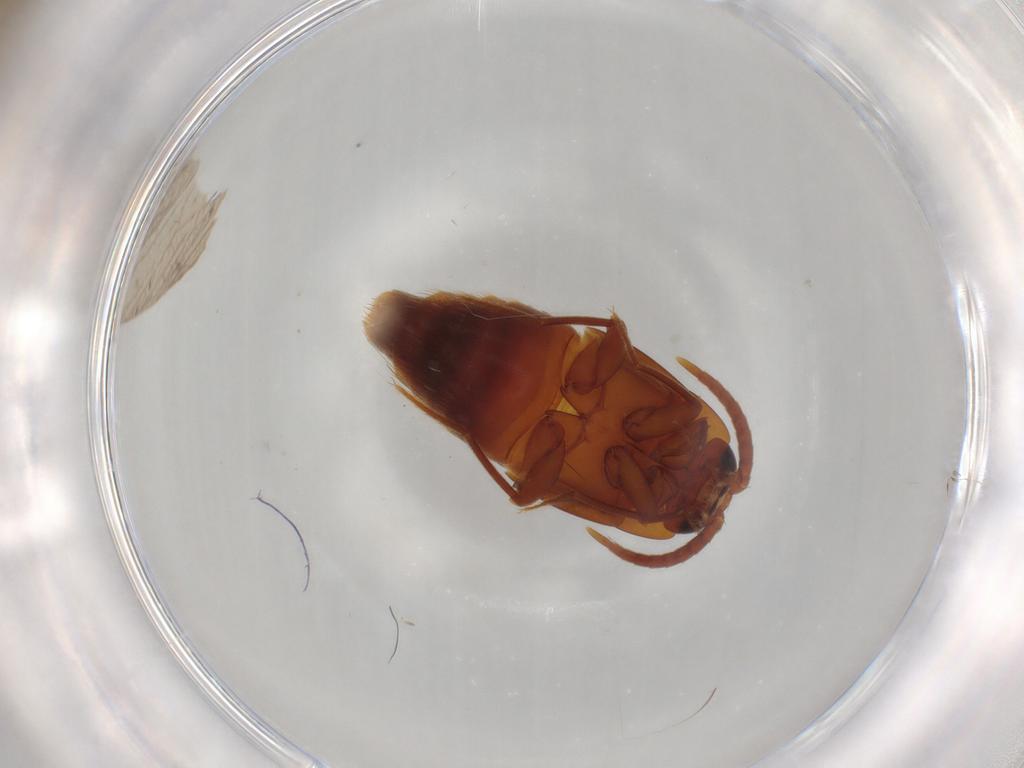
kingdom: Animalia
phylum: Arthropoda
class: Insecta
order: Coleoptera
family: Staphylinidae
